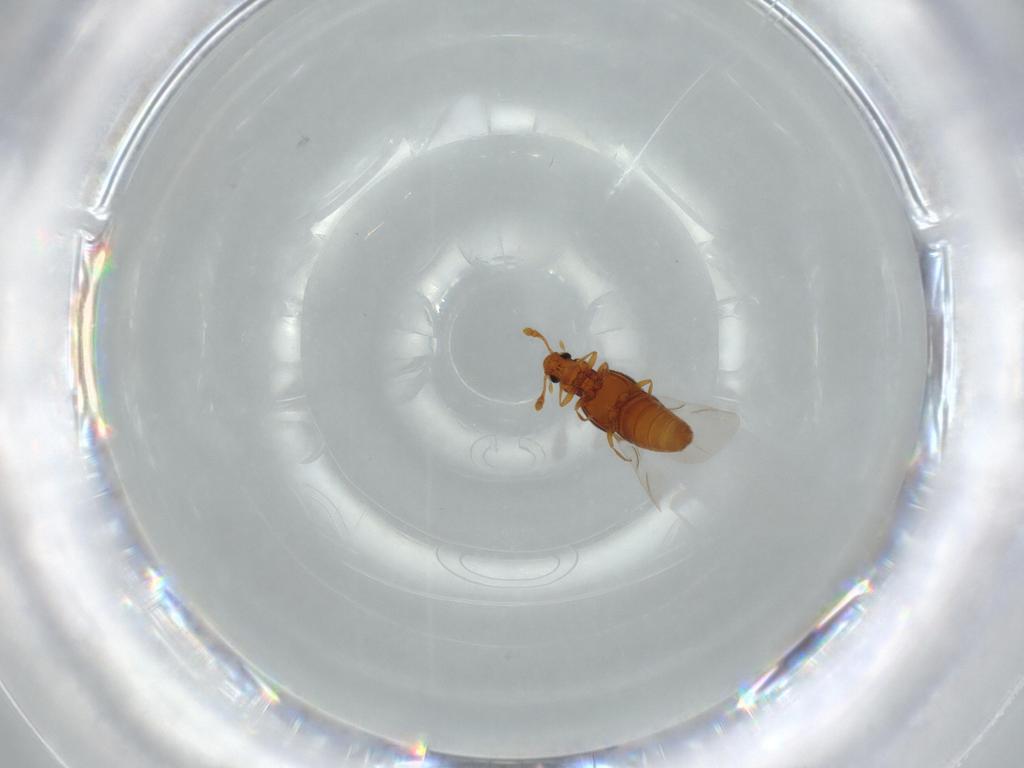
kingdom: Animalia
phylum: Arthropoda
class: Insecta
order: Coleoptera
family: Staphylinidae
